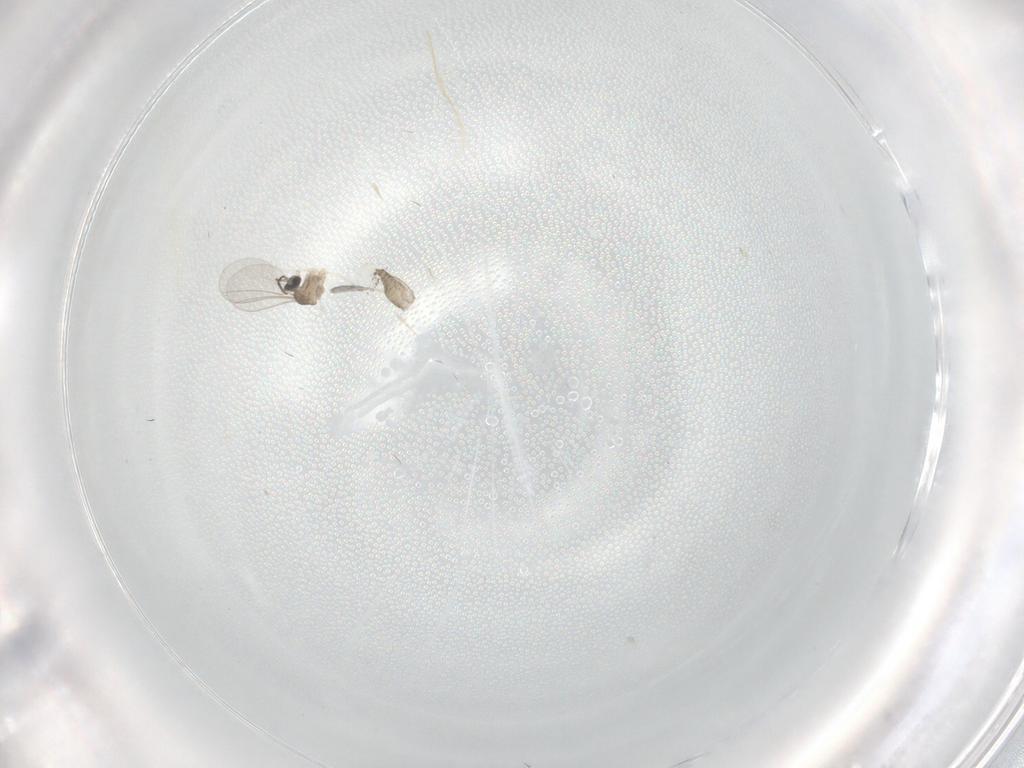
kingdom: Animalia
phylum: Arthropoda
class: Insecta
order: Diptera
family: Cecidomyiidae
